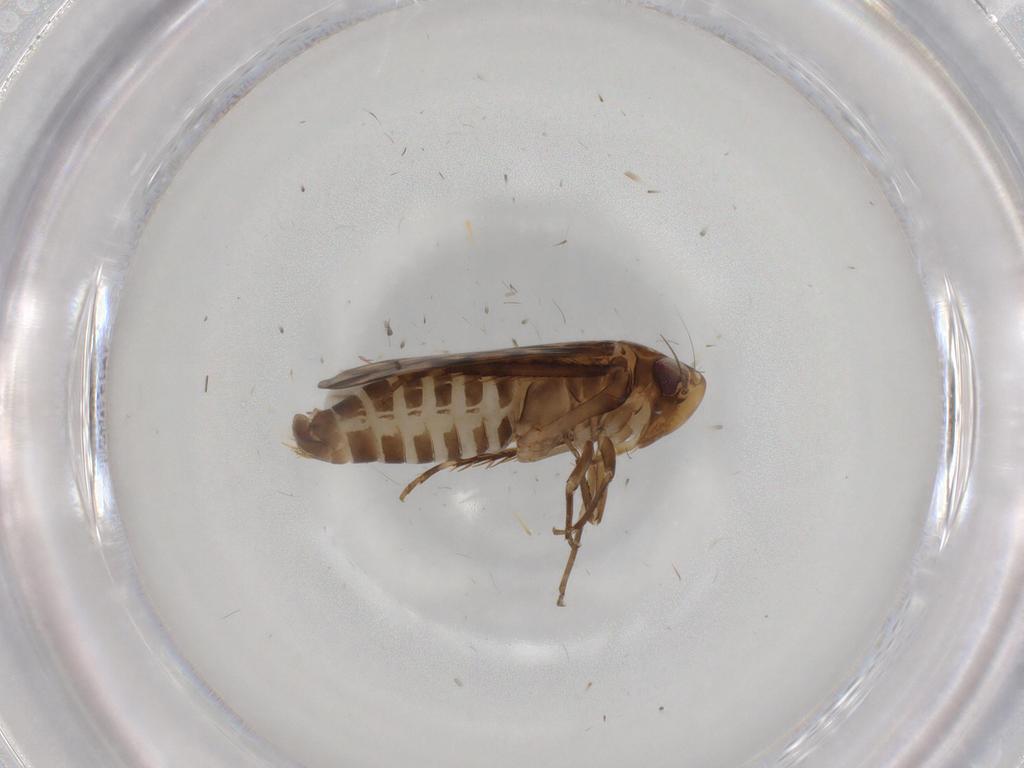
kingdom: Animalia
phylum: Arthropoda
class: Insecta
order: Hemiptera
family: Cicadellidae
